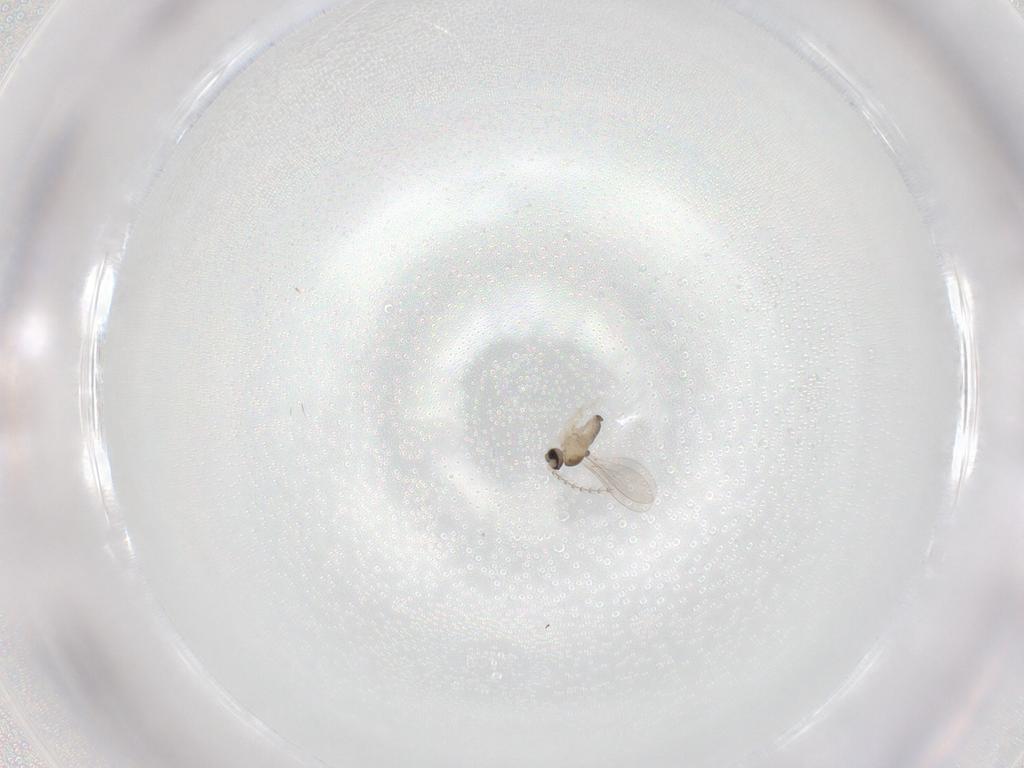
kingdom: Animalia
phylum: Arthropoda
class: Insecta
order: Diptera
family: Cecidomyiidae
